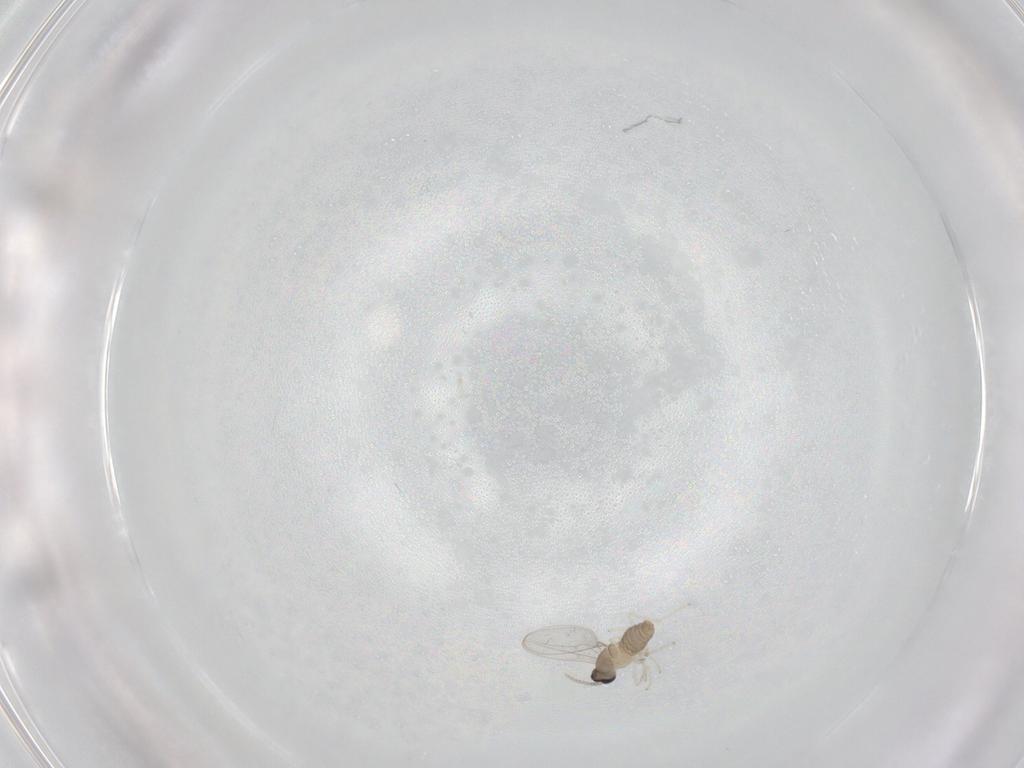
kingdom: Animalia
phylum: Arthropoda
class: Insecta
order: Diptera
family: Cecidomyiidae
